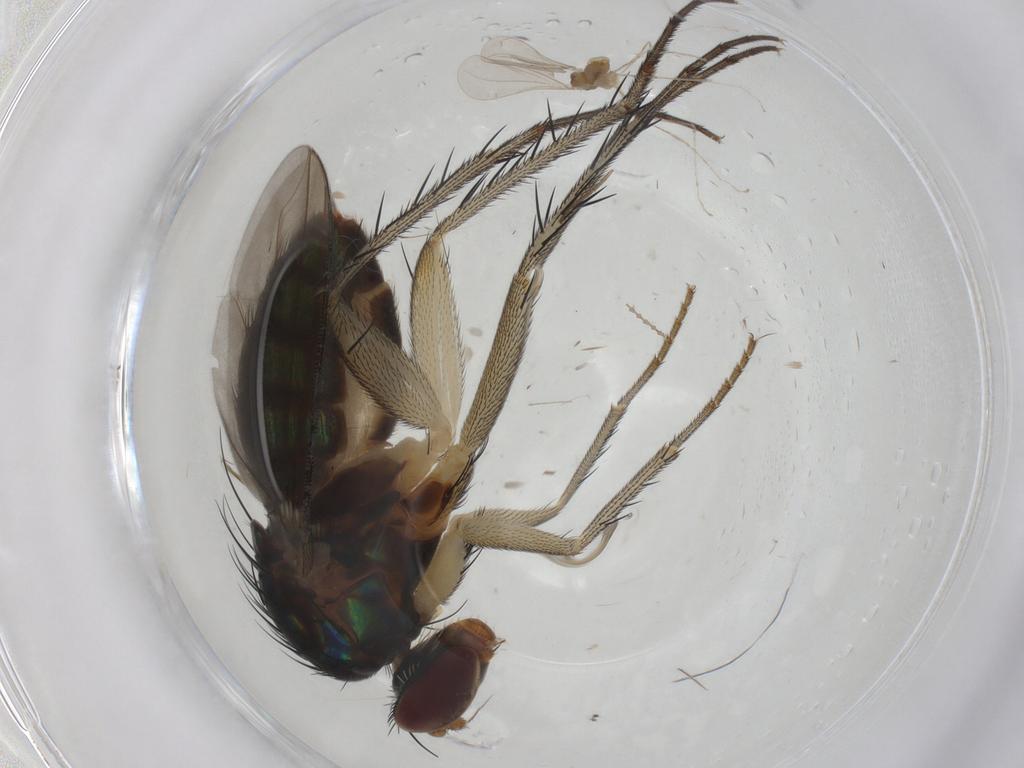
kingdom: Animalia
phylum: Arthropoda
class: Insecta
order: Diptera
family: Dolichopodidae
